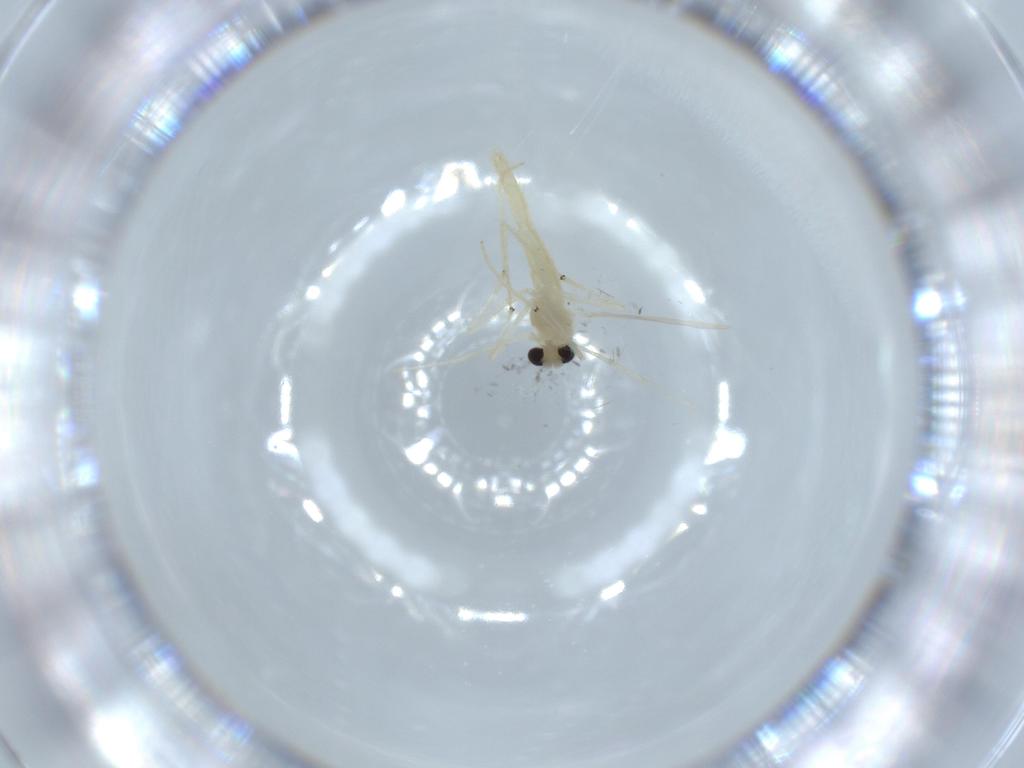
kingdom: Animalia
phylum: Arthropoda
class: Insecta
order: Diptera
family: Chironomidae
